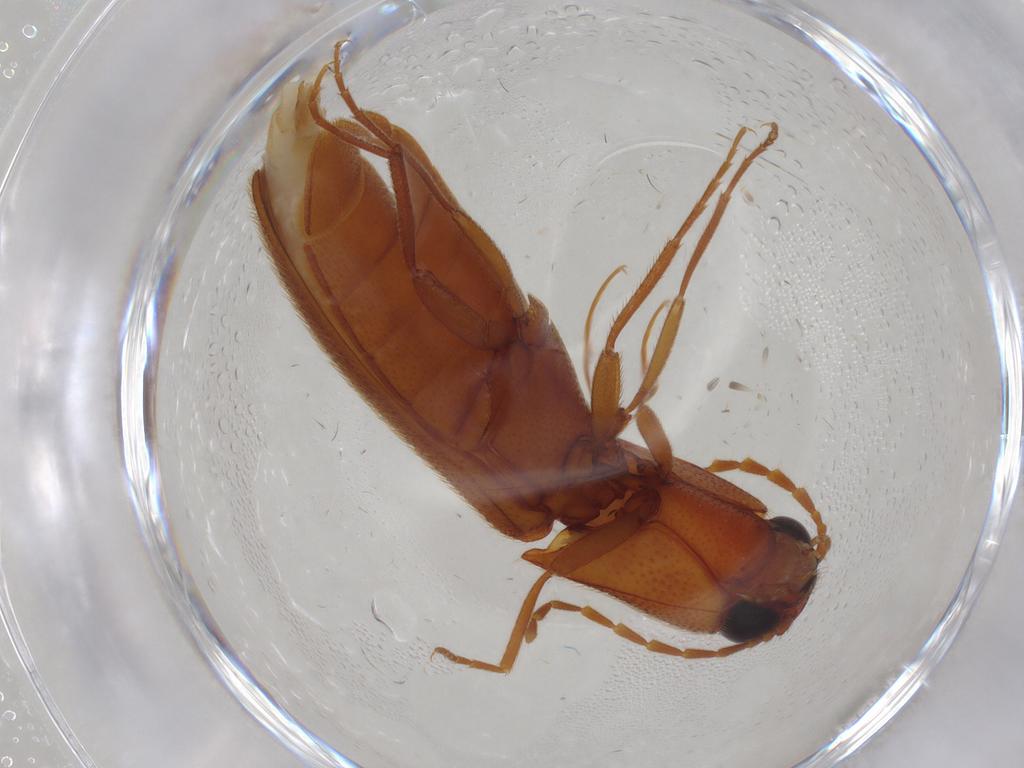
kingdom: Animalia
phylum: Arthropoda
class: Insecta
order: Coleoptera
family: Elateridae
